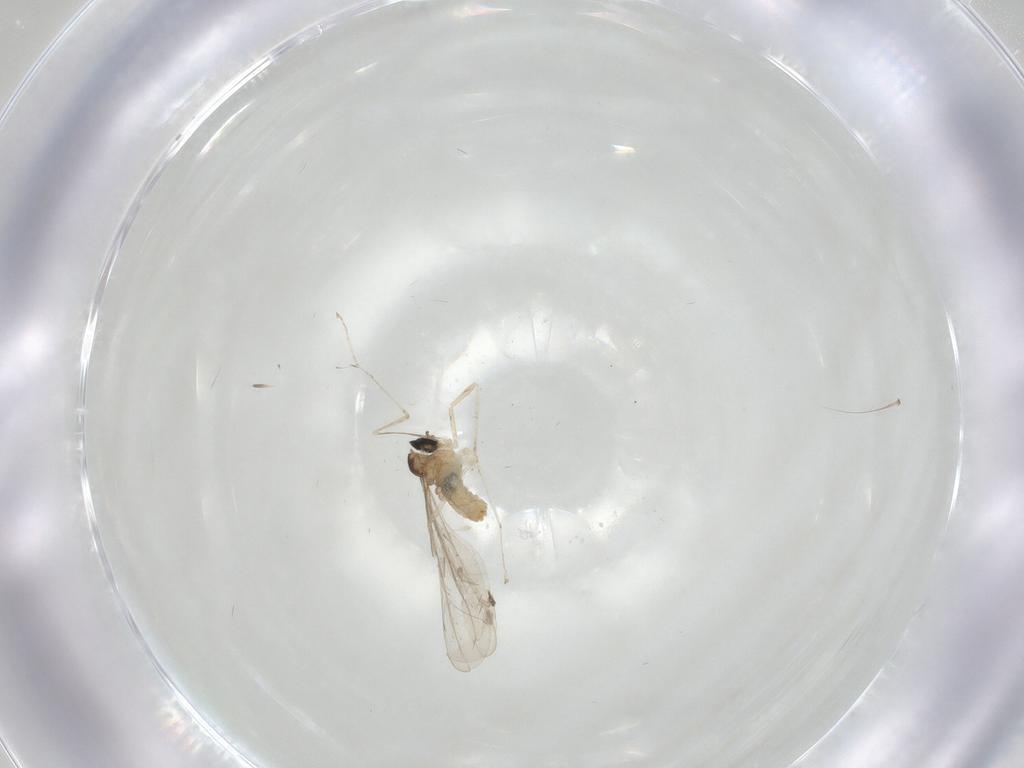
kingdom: Animalia
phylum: Arthropoda
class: Insecta
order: Diptera
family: Cecidomyiidae
